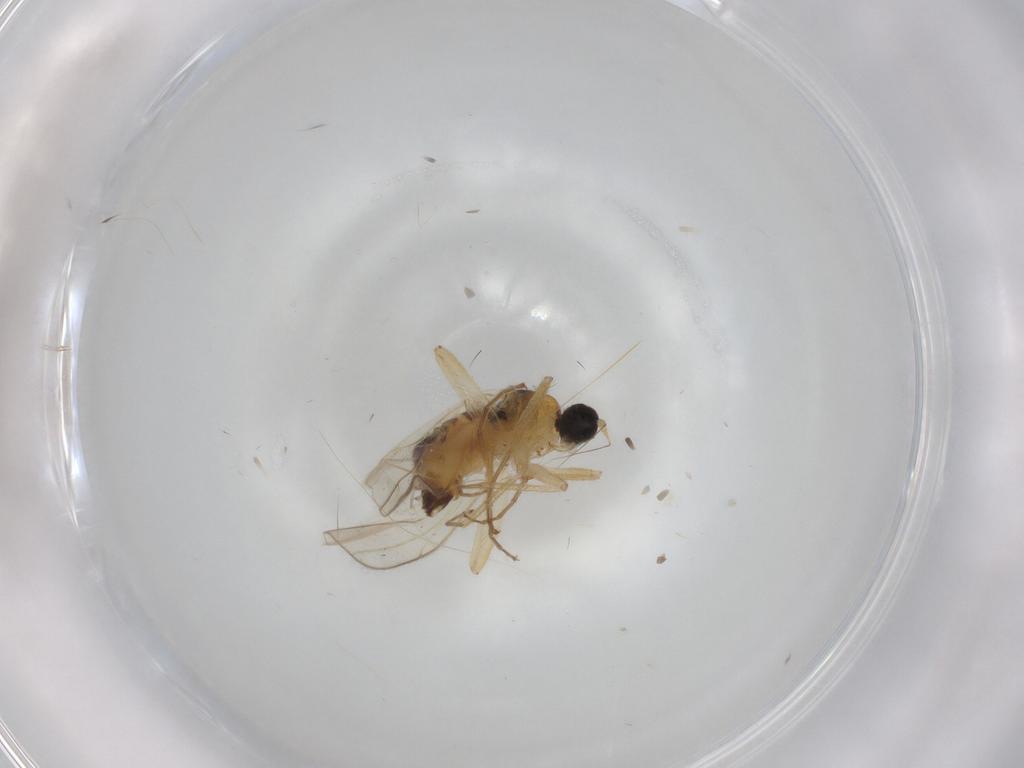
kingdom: Animalia
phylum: Arthropoda
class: Insecta
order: Diptera
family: Hybotidae
